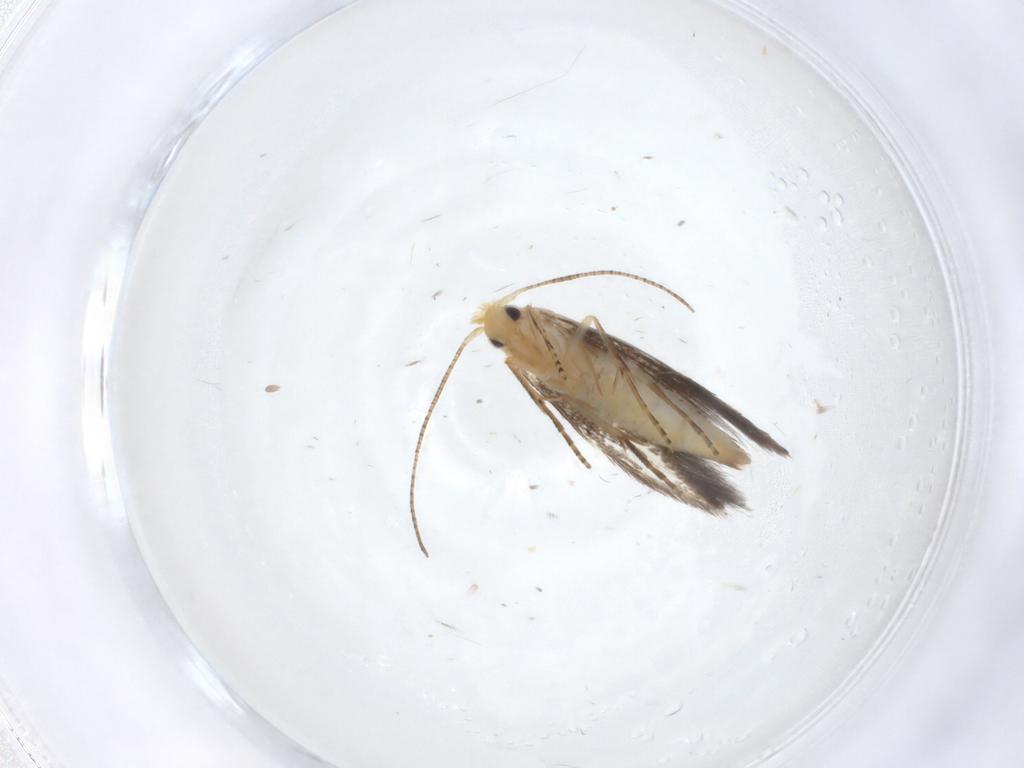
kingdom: Animalia
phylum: Arthropoda
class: Insecta
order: Lepidoptera
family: Bucculatricidae
